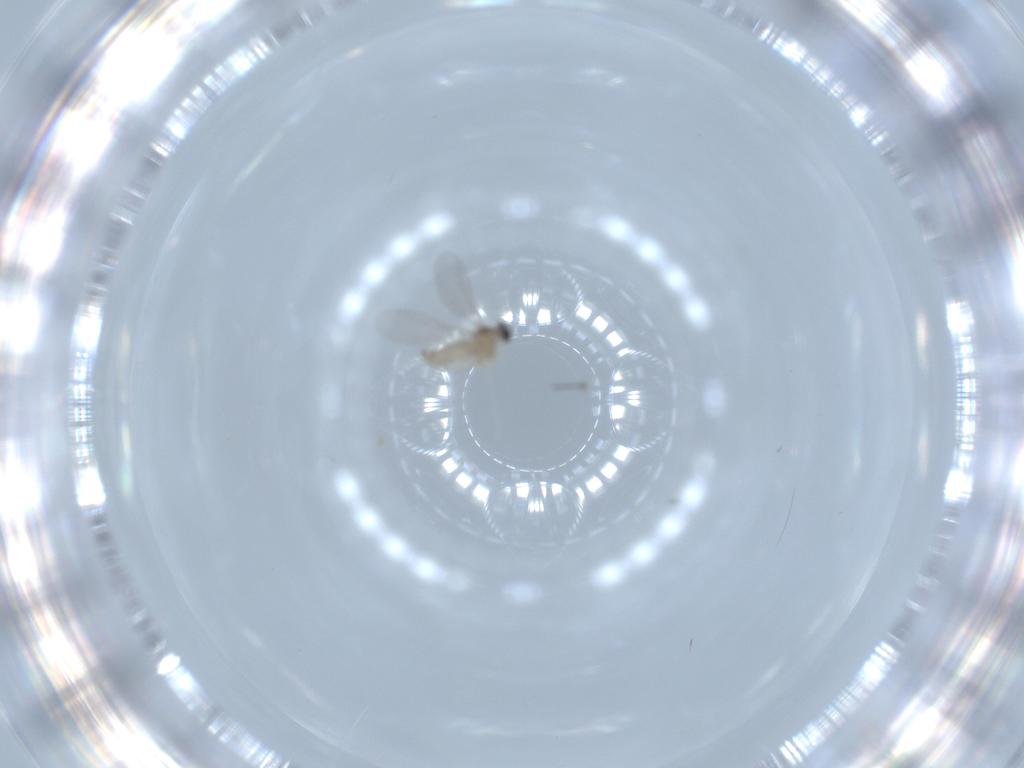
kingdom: Animalia
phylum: Arthropoda
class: Insecta
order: Diptera
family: Cecidomyiidae
